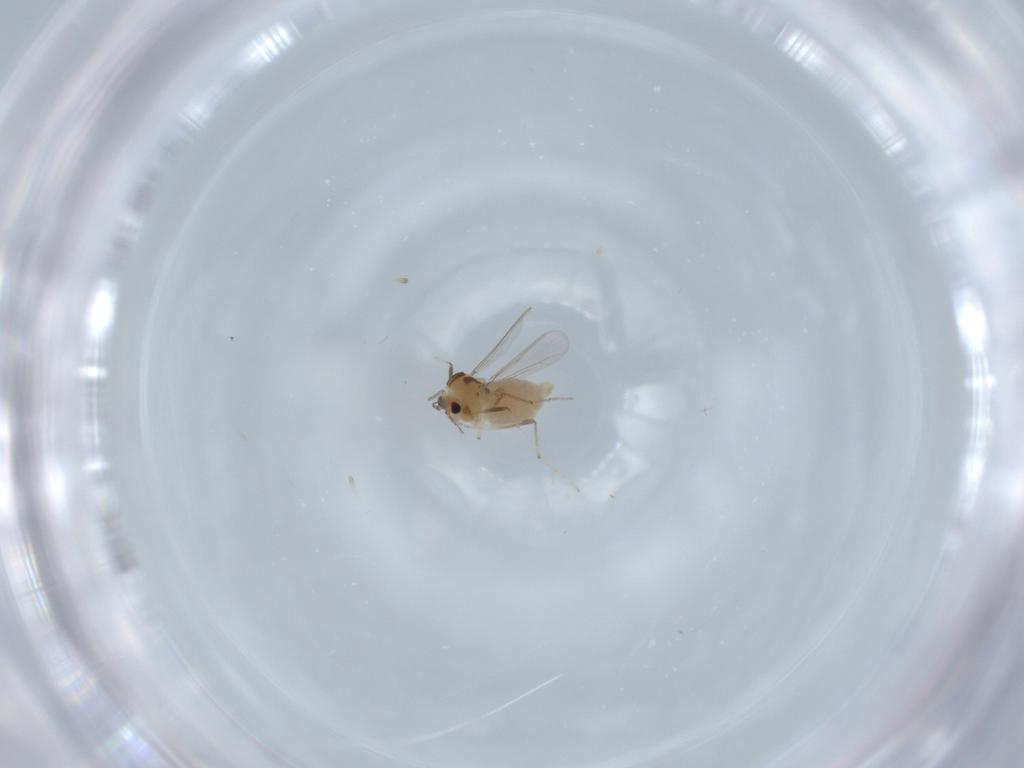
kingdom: Animalia
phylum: Arthropoda
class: Insecta
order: Diptera
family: Chironomidae
